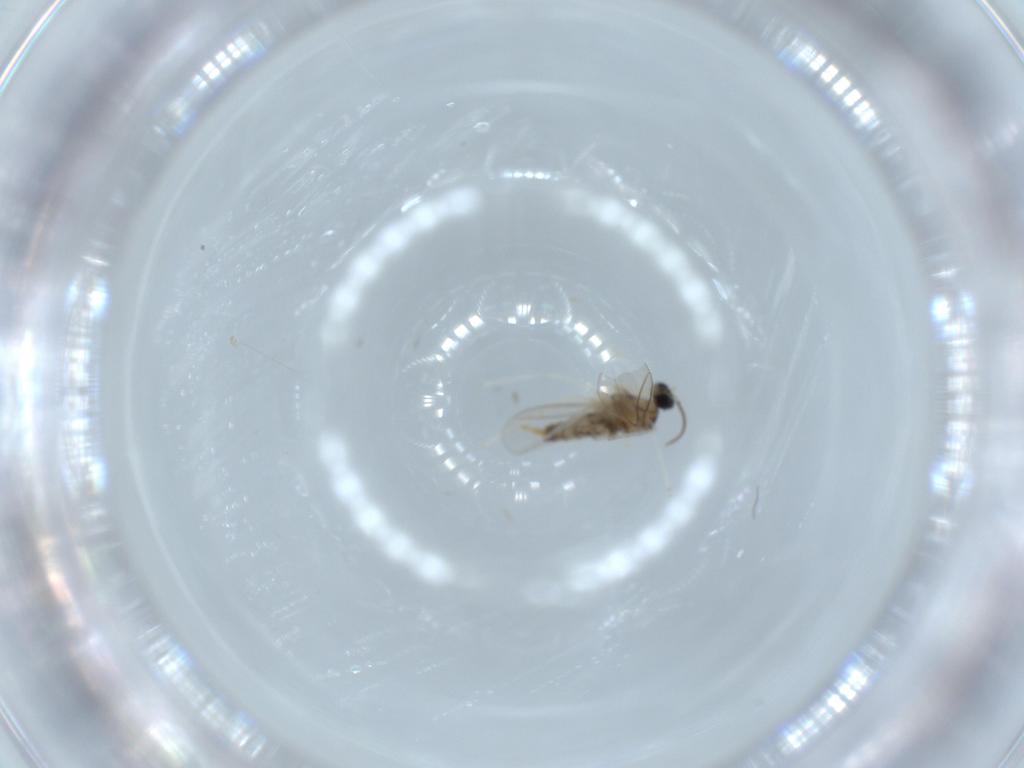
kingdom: Animalia
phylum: Arthropoda
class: Insecta
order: Diptera
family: Cecidomyiidae
